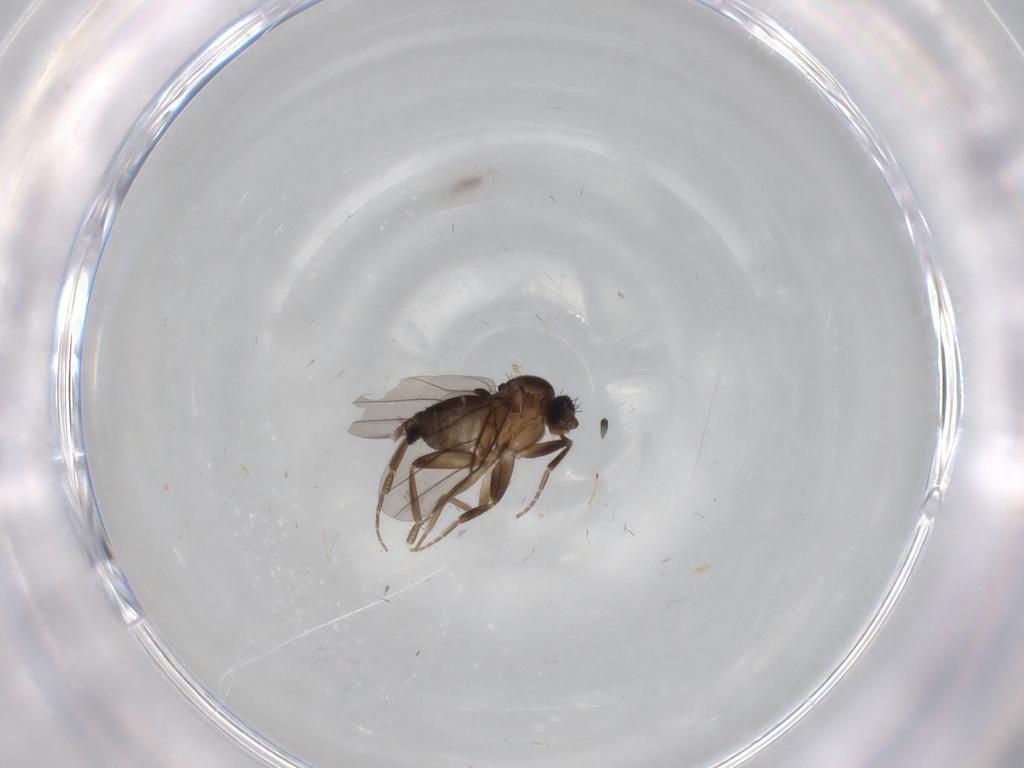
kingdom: Animalia
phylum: Arthropoda
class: Insecta
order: Diptera
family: Chironomidae
